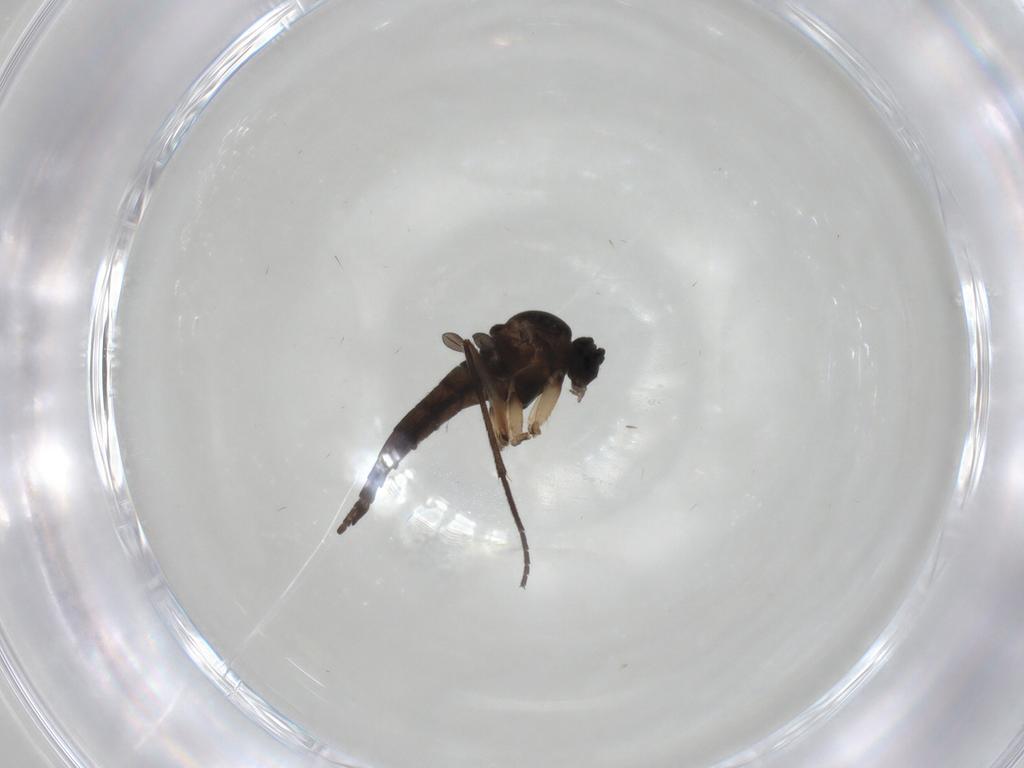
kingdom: Animalia
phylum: Arthropoda
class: Insecta
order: Diptera
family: Sciaridae
